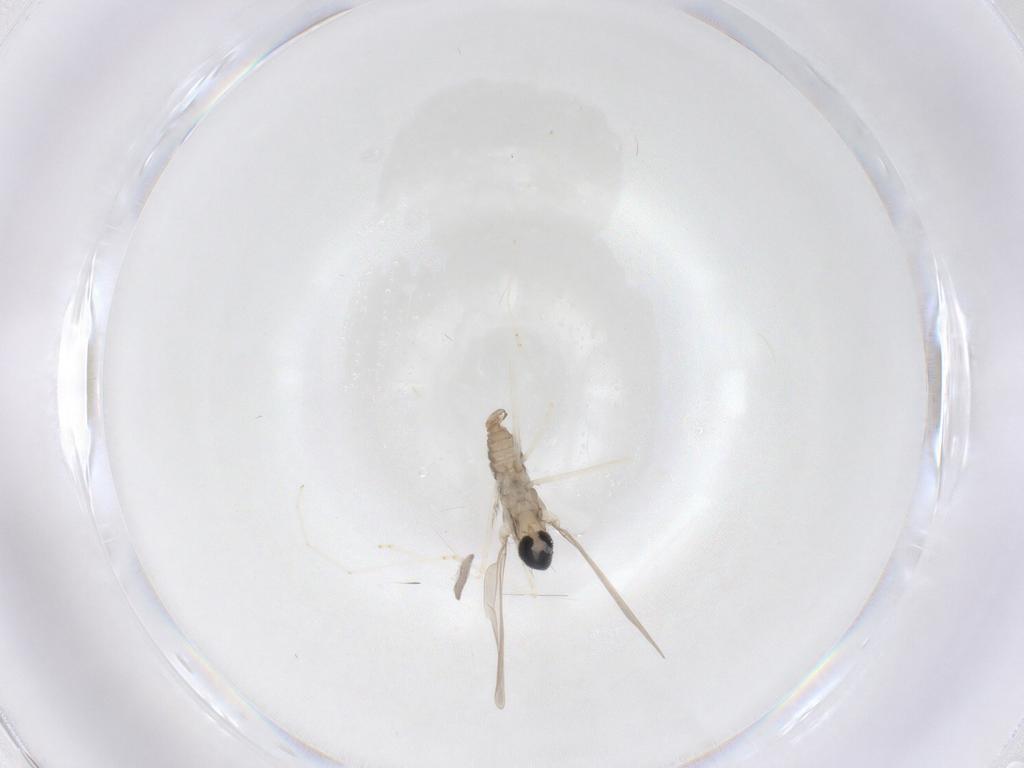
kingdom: Animalia
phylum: Arthropoda
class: Insecta
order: Diptera
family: Cecidomyiidae
